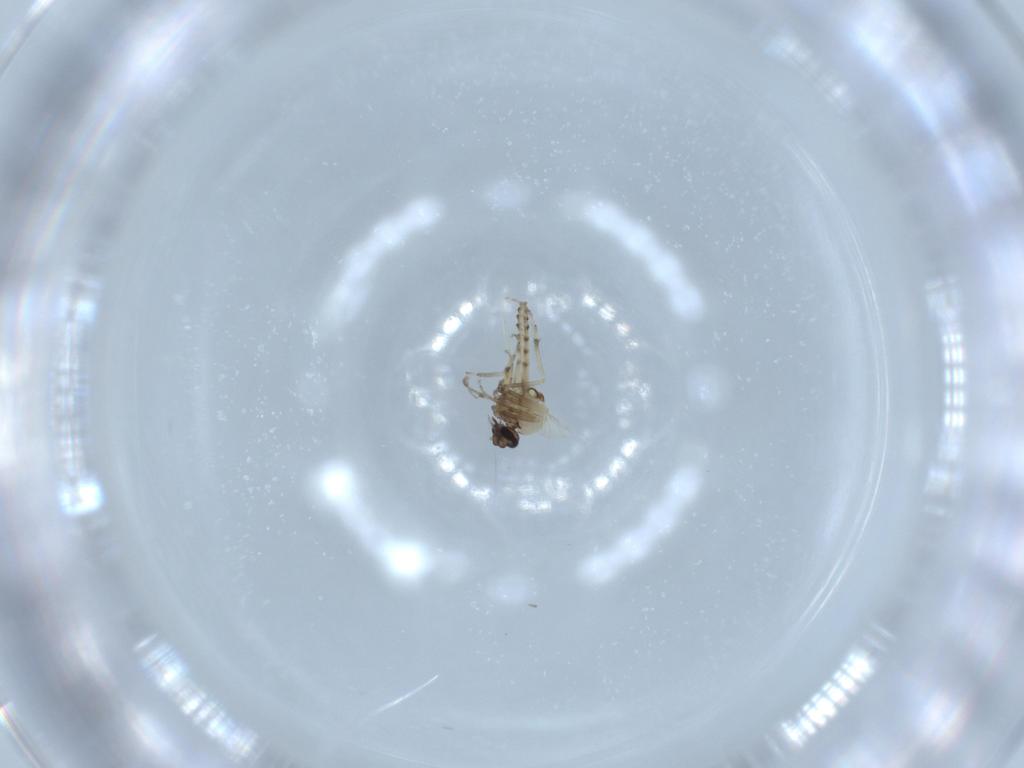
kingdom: Animalia
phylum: Arthropoda
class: Insecta
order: Diptera
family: Ceratopogonidae
